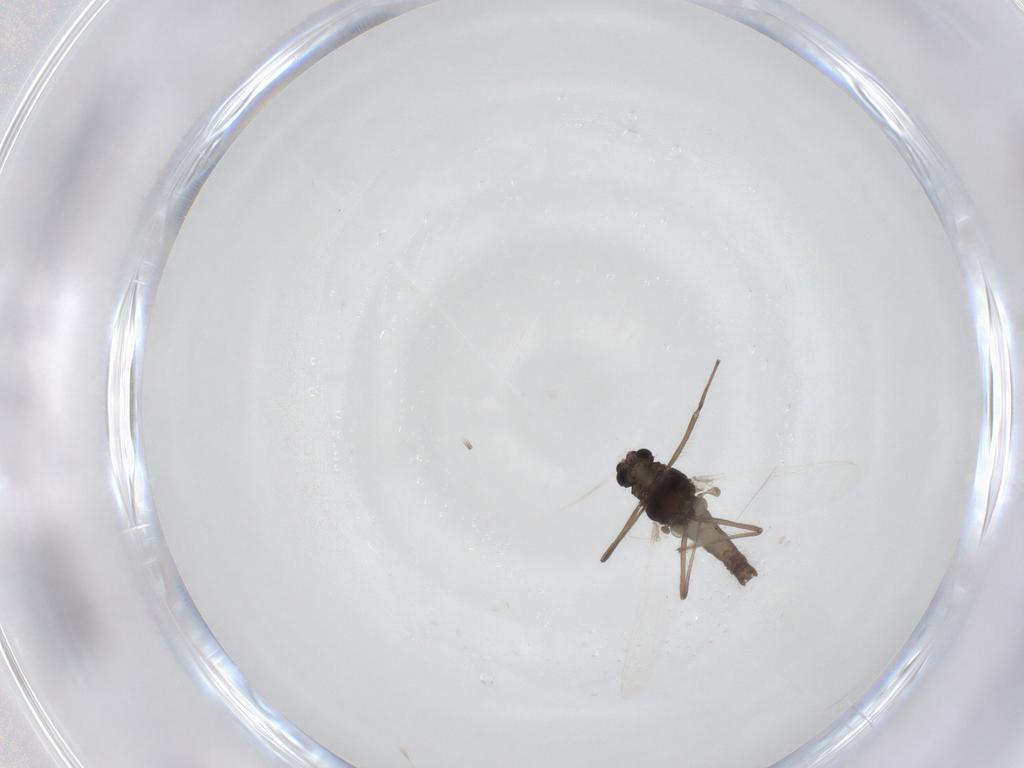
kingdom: Animalia
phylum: Arthropoda
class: Insecta
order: Diptera
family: Chironomidae
